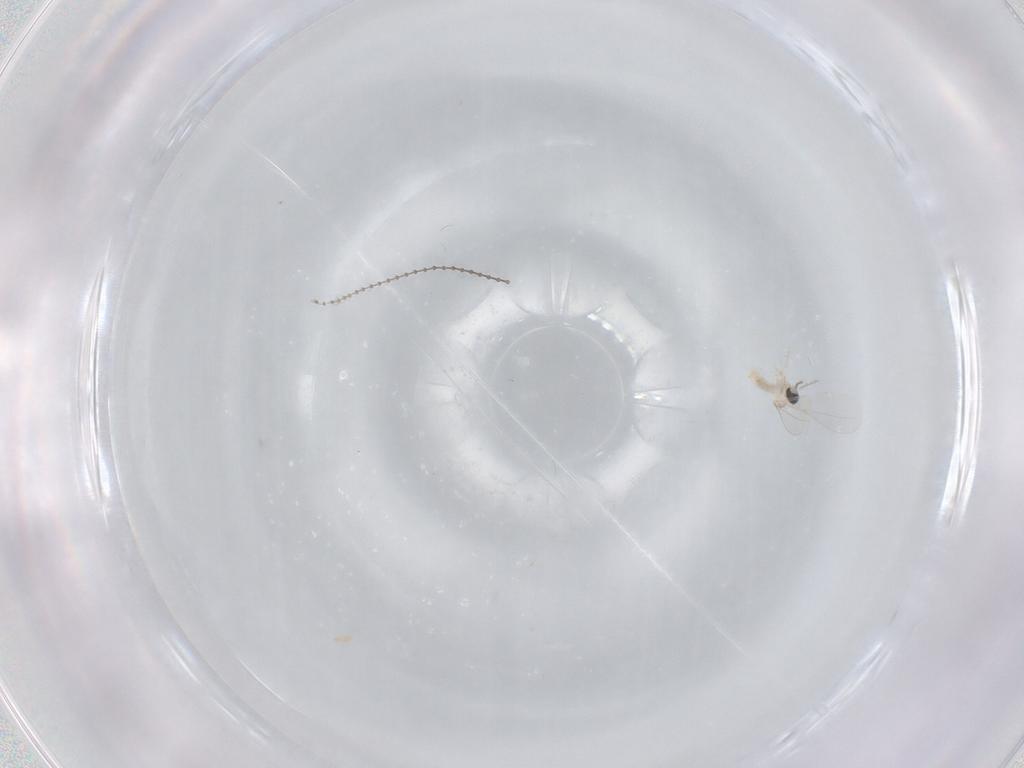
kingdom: Animalia
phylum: Arthropoda
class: Insecta
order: Diptera
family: Cecidomyiidae
